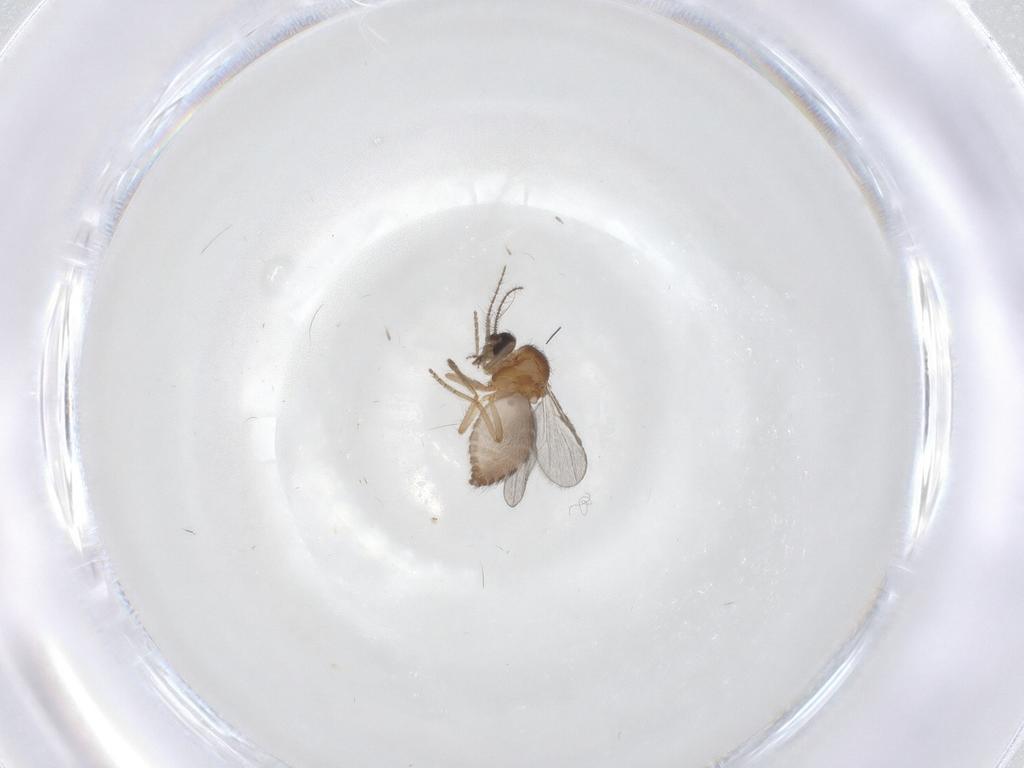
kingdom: Animalia
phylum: Arthropoda
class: Insecta
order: Diptera
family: Ceratopogonidae
